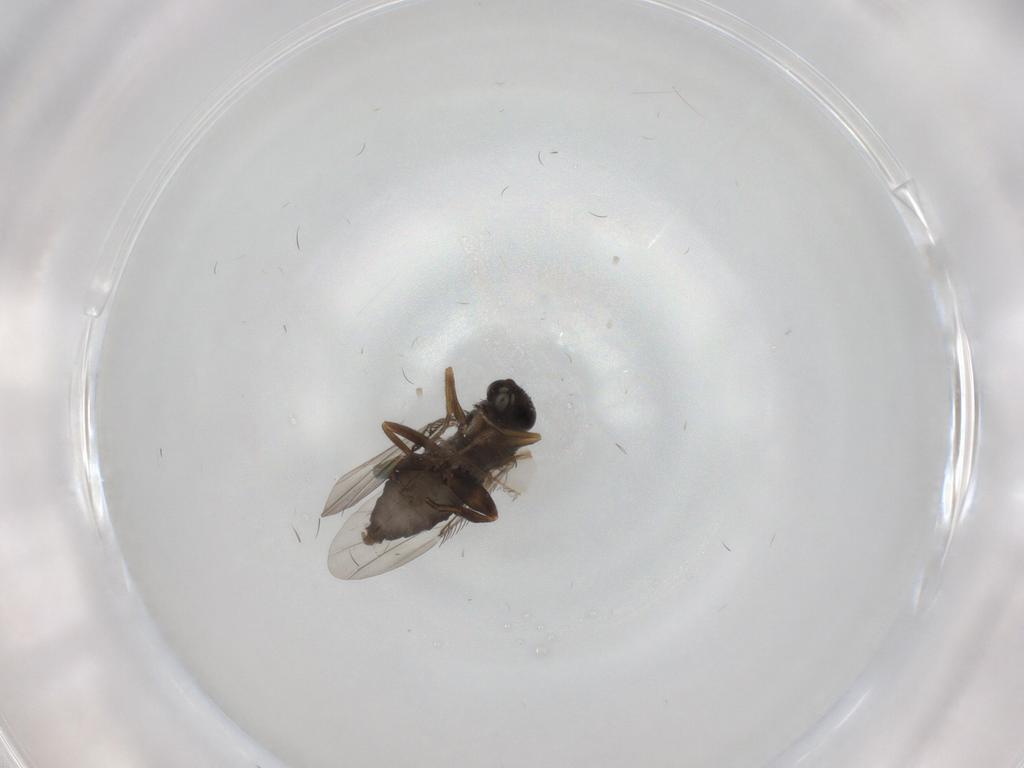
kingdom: Animalia
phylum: Arthropoda
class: Insecta
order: Diptera
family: Phoridae
